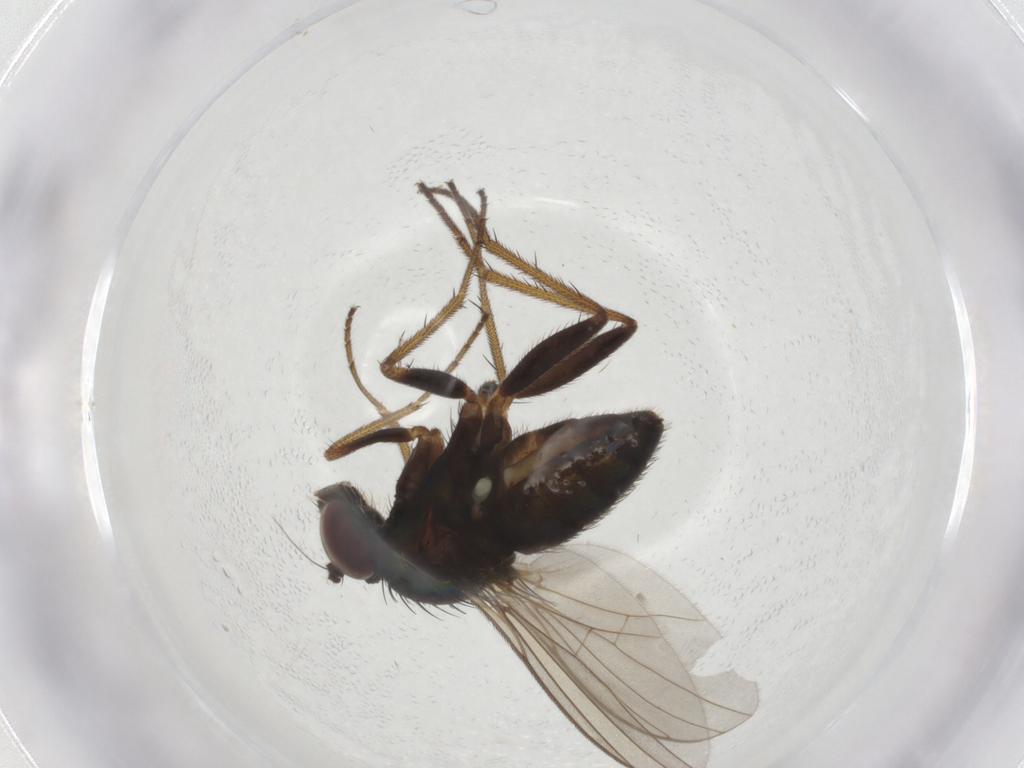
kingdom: Animalia
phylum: Arthropoda
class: Insecta
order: Diptera
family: Dolichopodidae
